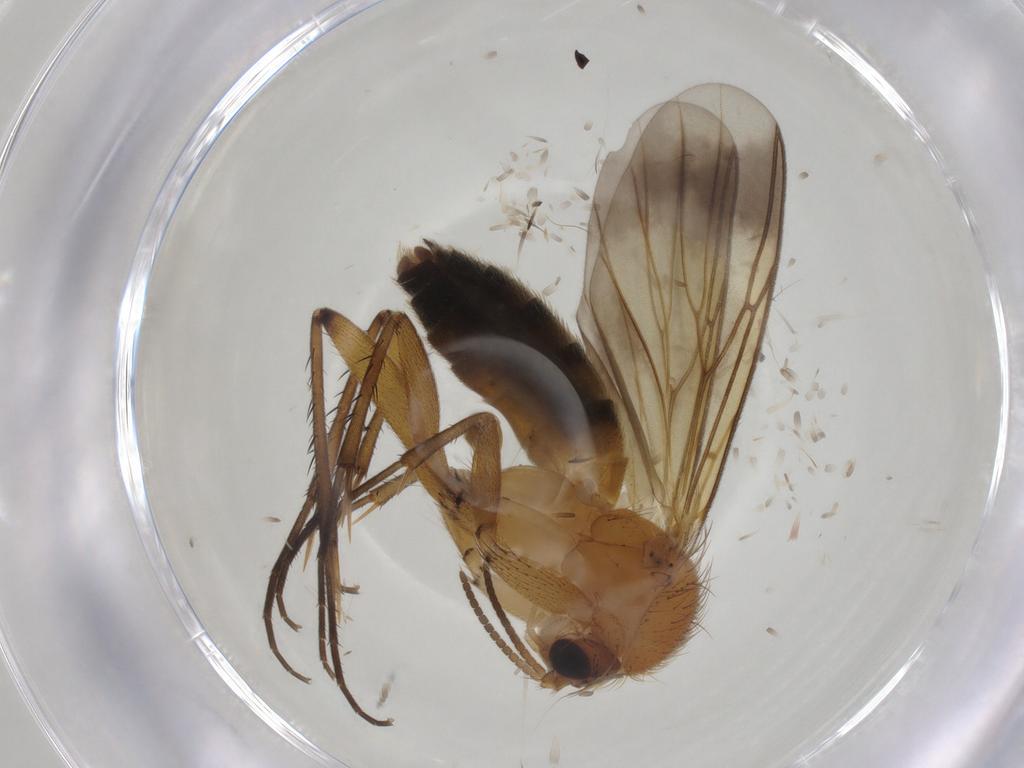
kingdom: Animalia
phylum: Arthropoda
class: Insecta
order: Diptera
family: Mycetophilidae
